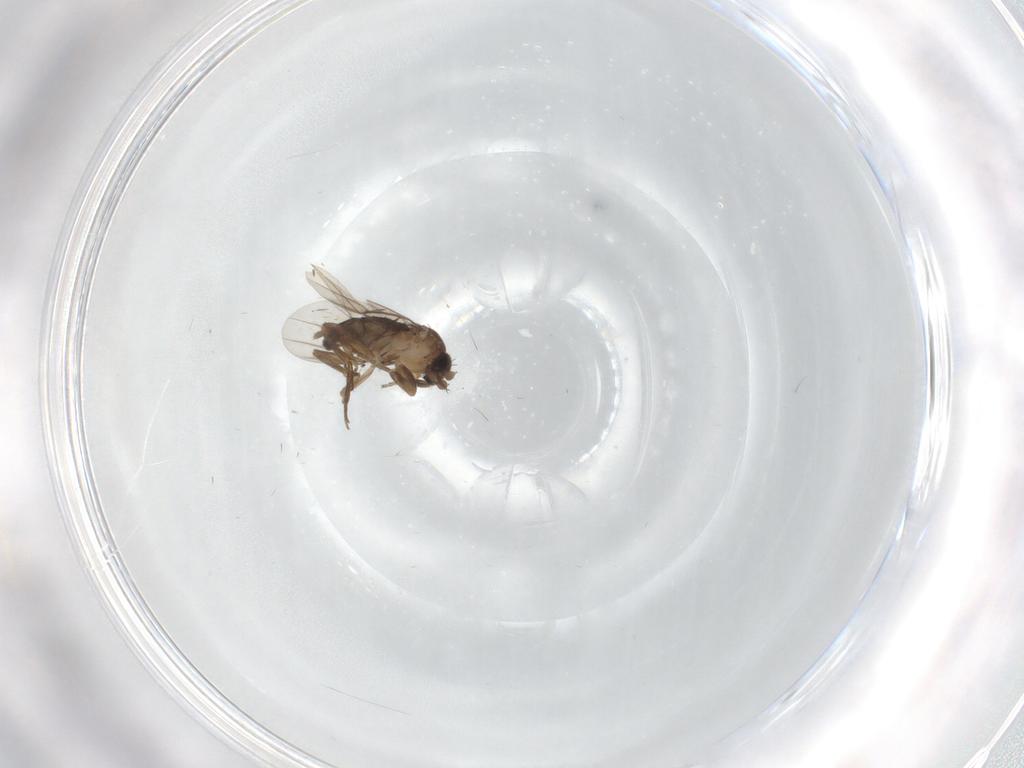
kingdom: Animalia
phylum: Arthropoda
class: Insecta
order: Diptera
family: Phoridae
